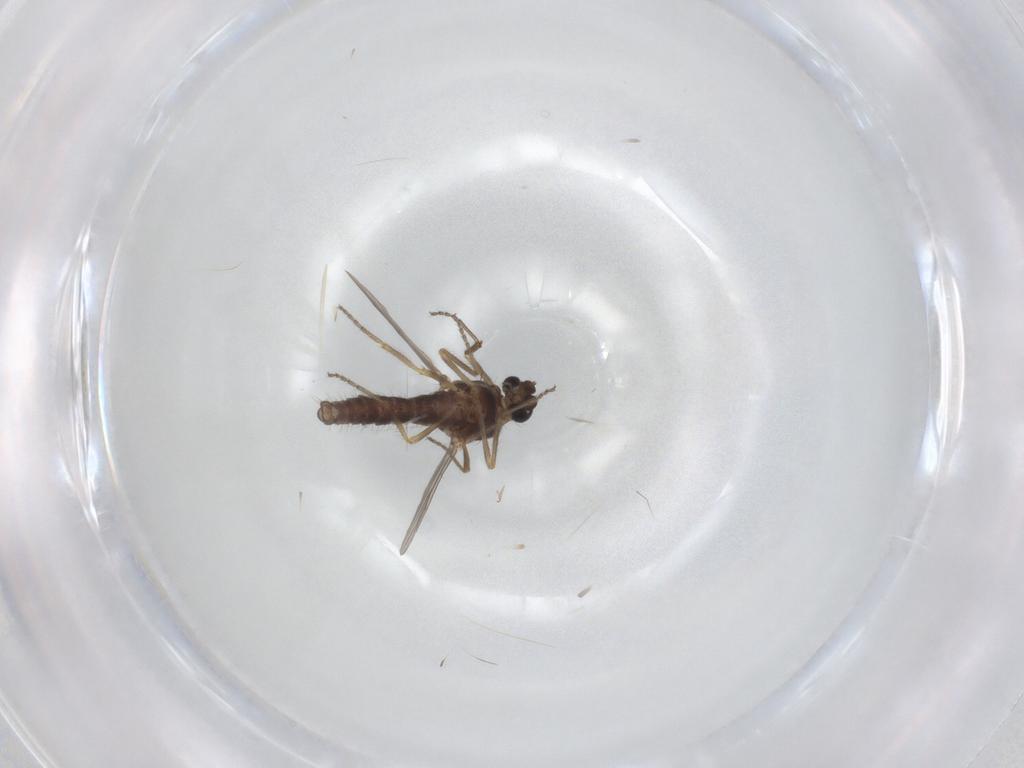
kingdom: Animalia
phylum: Arthropoda
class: Insecta
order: Diptera
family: Ceratopogonidae
